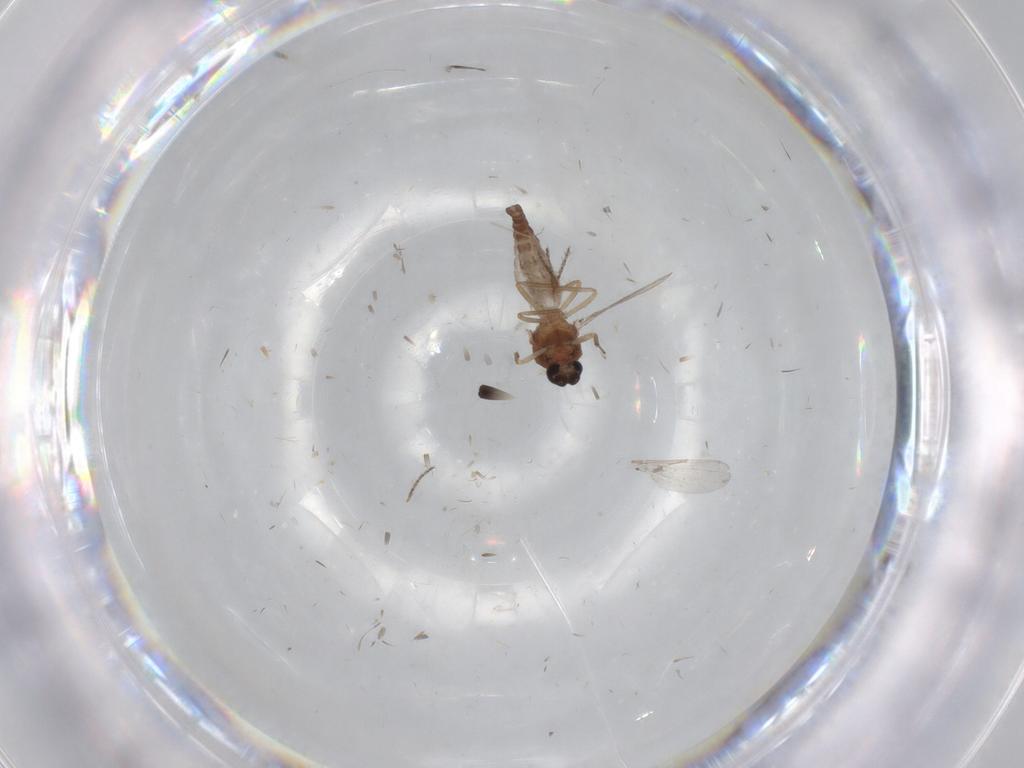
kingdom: Animalia
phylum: Arthropoda
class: Insecta
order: Diptera
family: Ceratopogonidae
